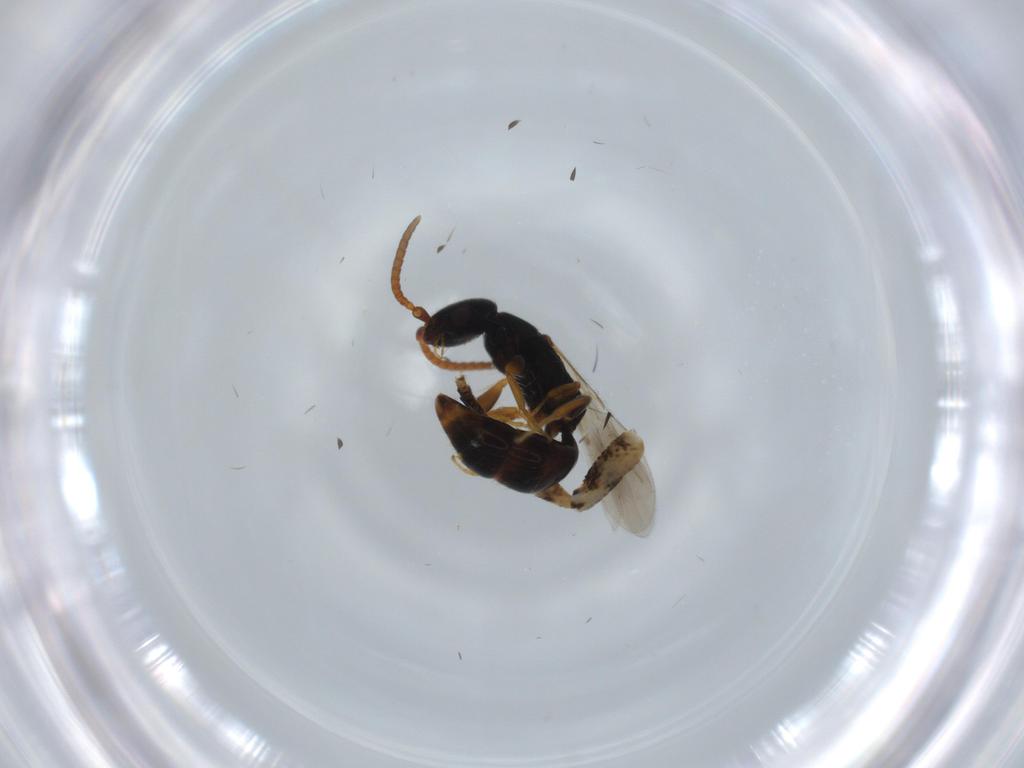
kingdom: Animalia
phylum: Arthropoda
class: Insecta
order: Hymenoptera
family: Bethylidae
